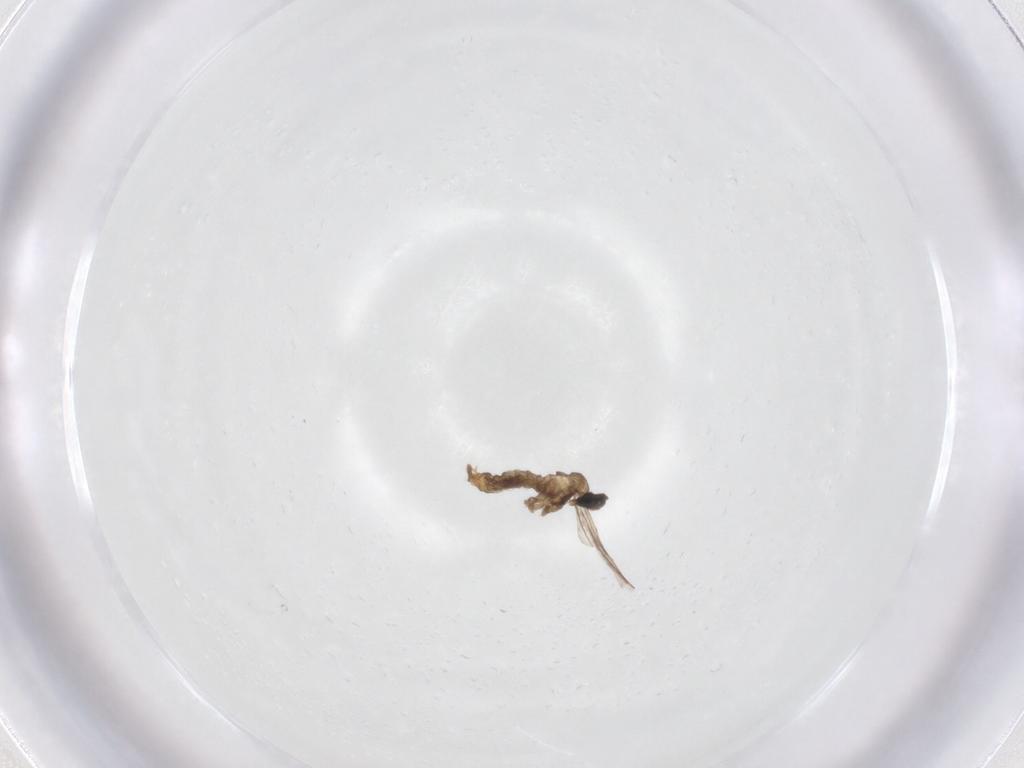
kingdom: Animalia
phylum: Arthropoda
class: Insecta
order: Diptera
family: Cecidomyiidae
